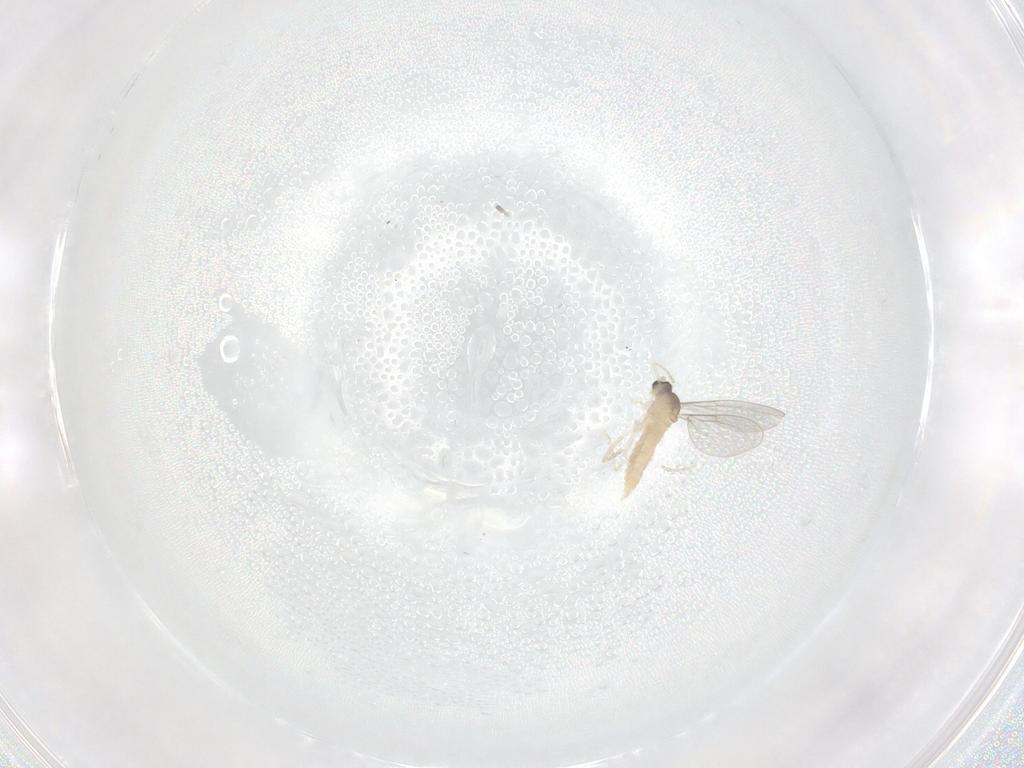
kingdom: Animalia
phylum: Arthropoda
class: Insecta
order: Diptera
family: Cecidomyiidae
